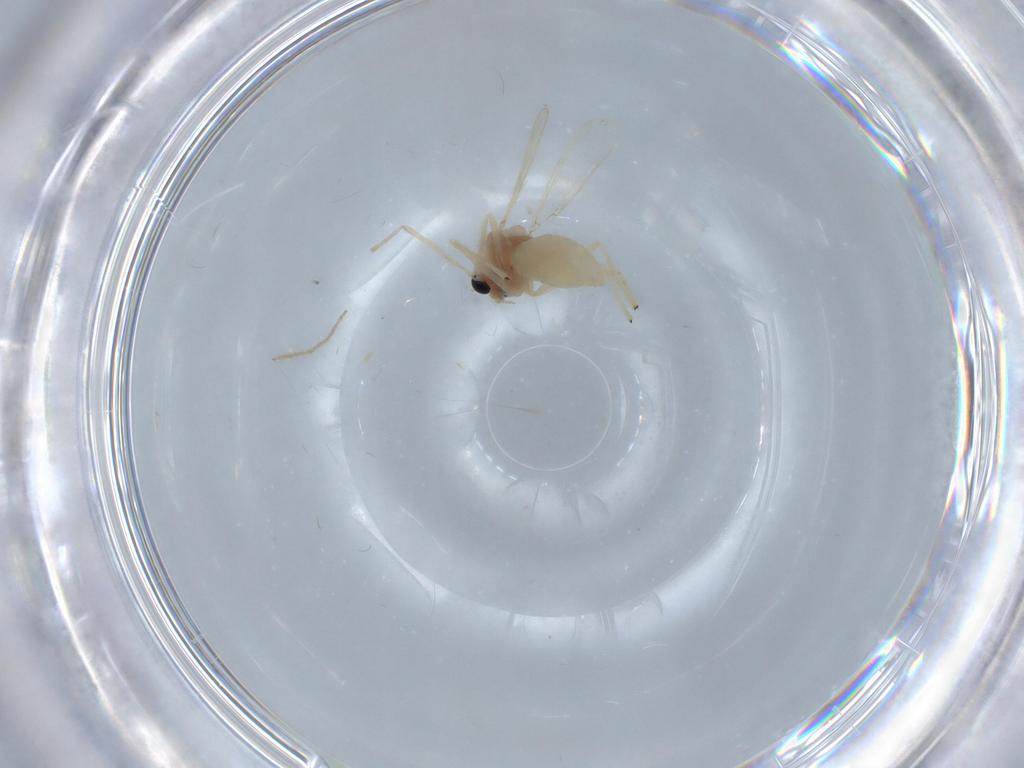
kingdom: Animalia
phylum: Arthropoda
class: Insecta
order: Diptera
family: Chironomidae
